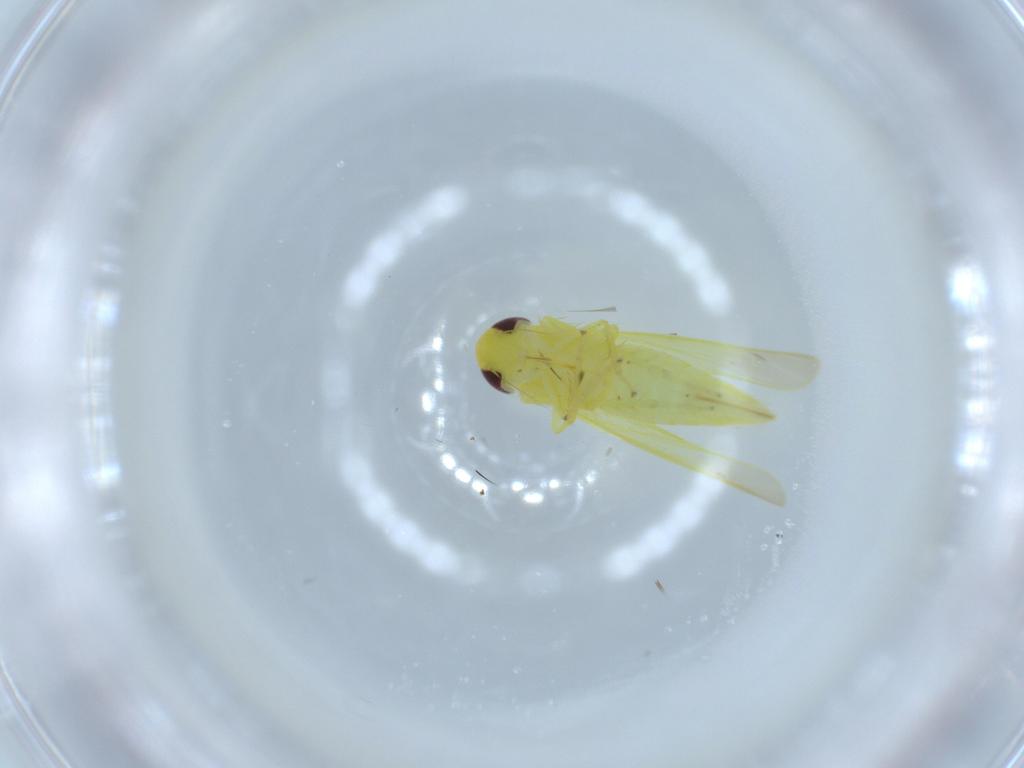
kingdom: Animalia
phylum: Arthropoda
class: Insecta
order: Hemiptera
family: Cicadellidae
